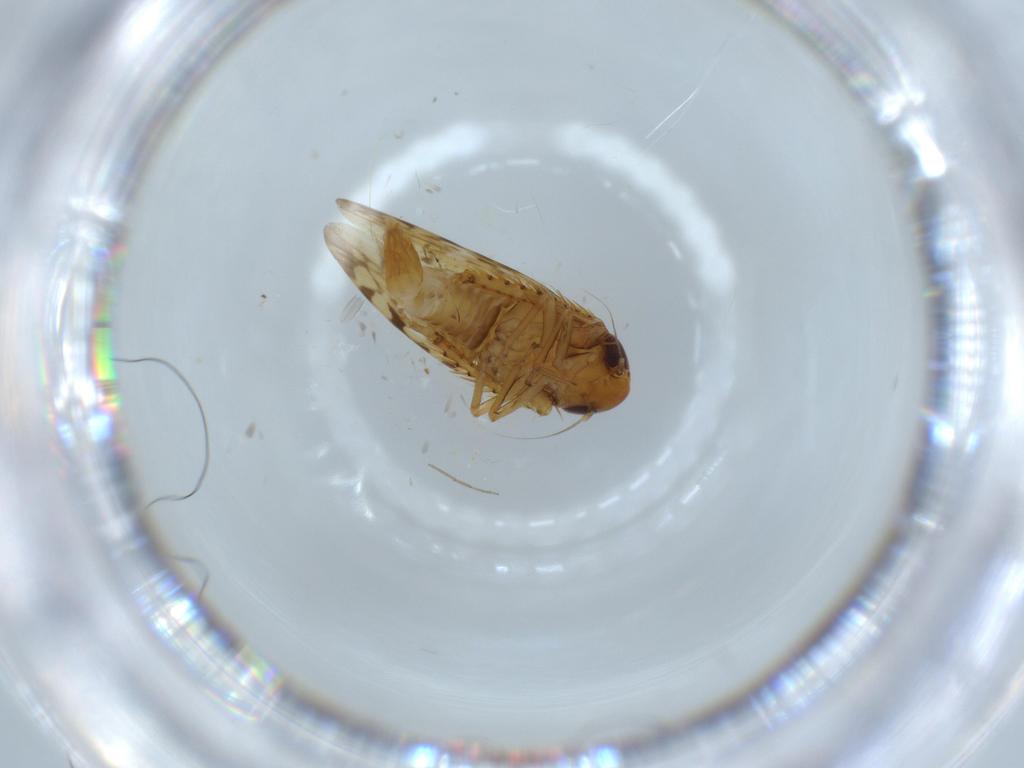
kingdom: Animalia
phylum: Arthropoda
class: Insecta
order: Hemiptera
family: Cicadellidae
